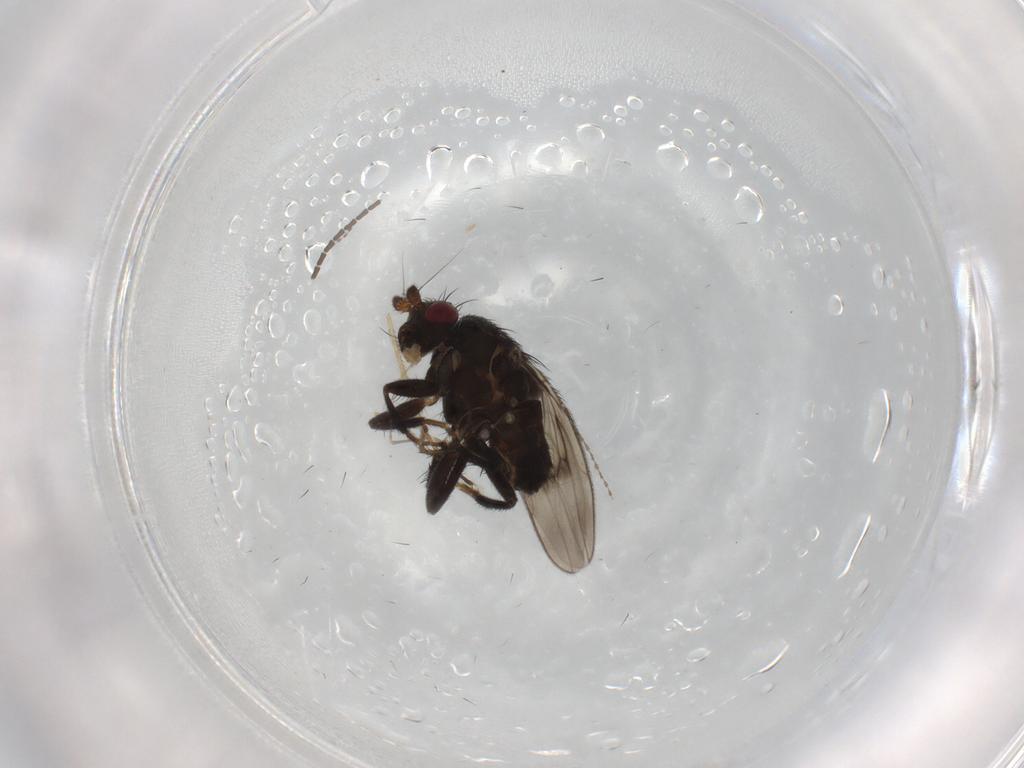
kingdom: Animalia
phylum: Arthropoda
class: Insecta
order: Diptera
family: Sphaeroceridae
